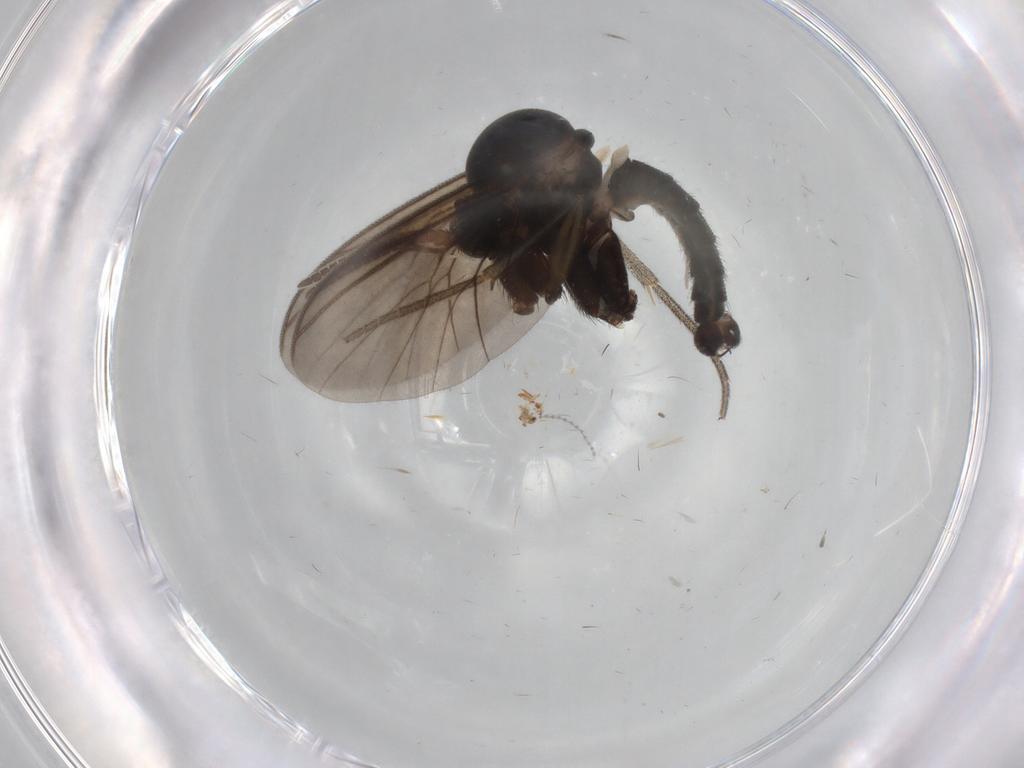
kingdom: Animalia
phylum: Arthropoda
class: Insecta
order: Diptera
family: Mycetophilidae
